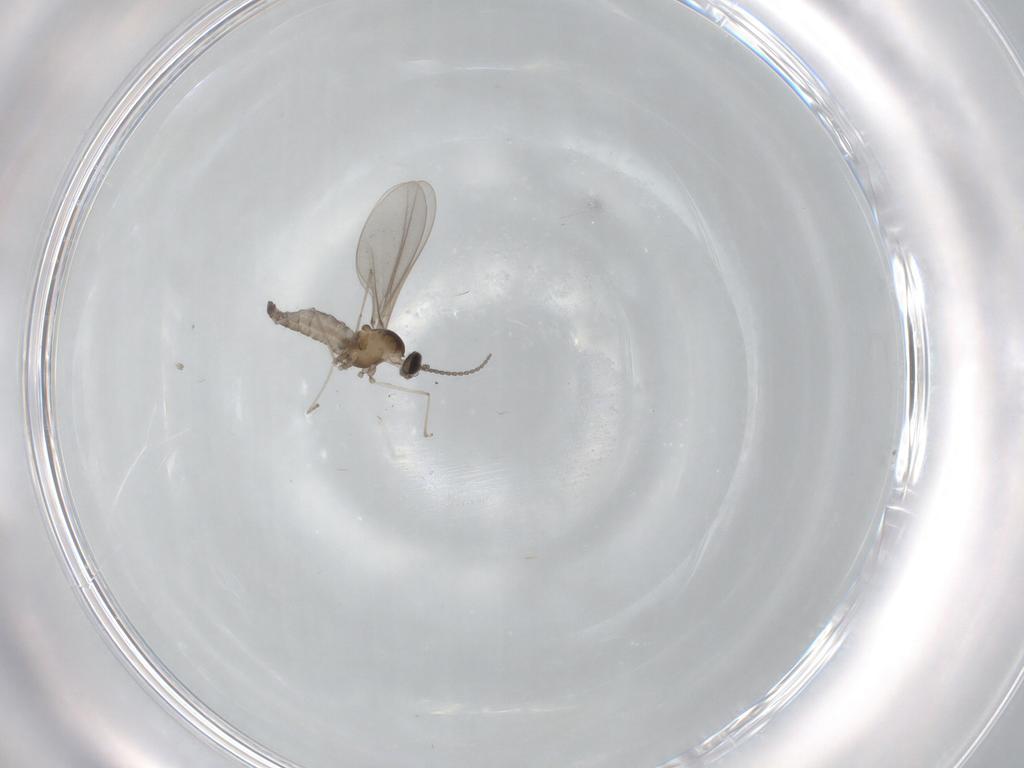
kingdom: Animalia
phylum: Arthropoda
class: Insecta
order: Diptera
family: Cecidomyiidae
